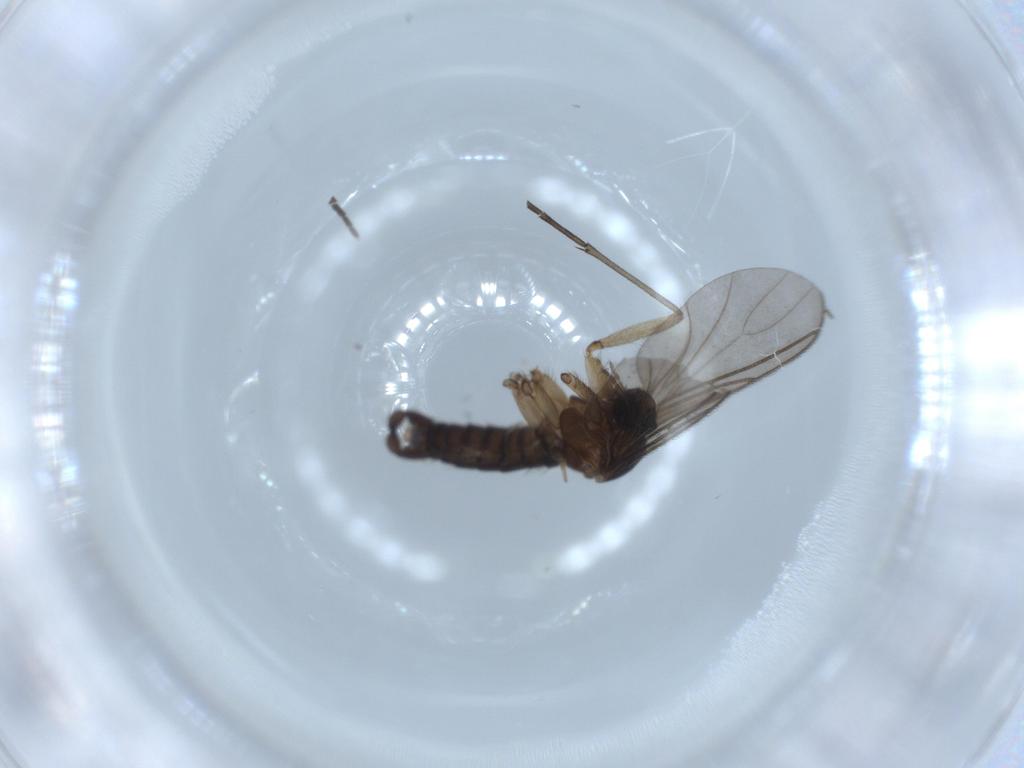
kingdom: Animalia
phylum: Arthropoda
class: Insecta
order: Diptera
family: Sciaridae
